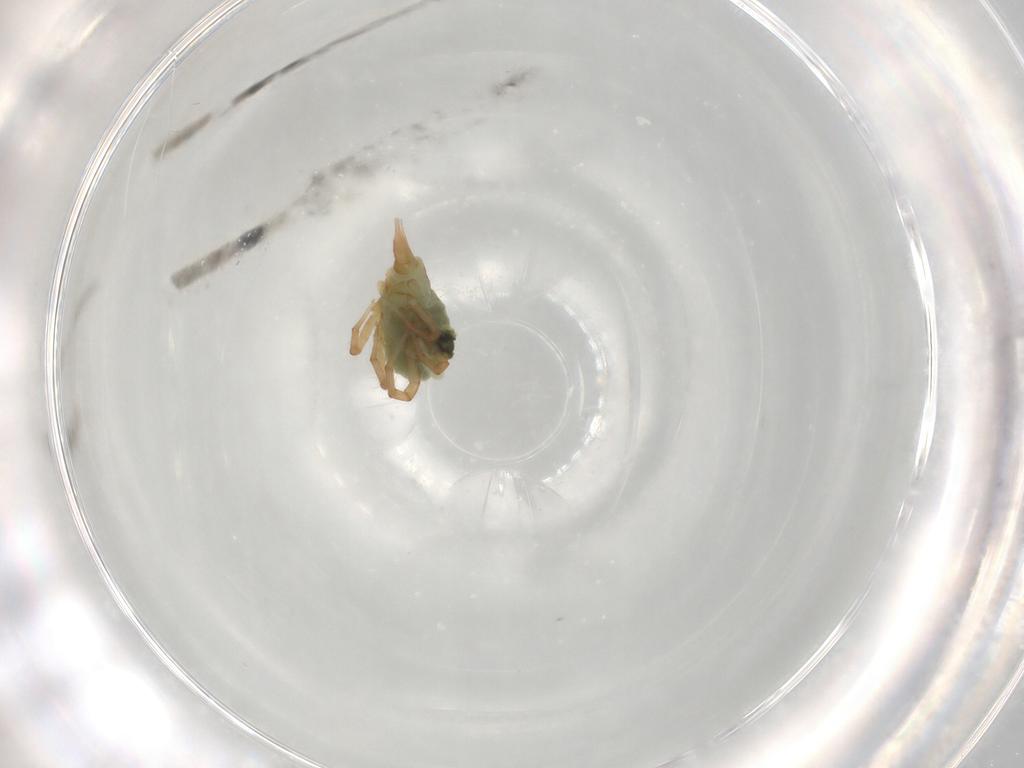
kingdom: Animalia
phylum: Arthropoda
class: Arachnida
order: Trombidiformes
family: Bdellidae
